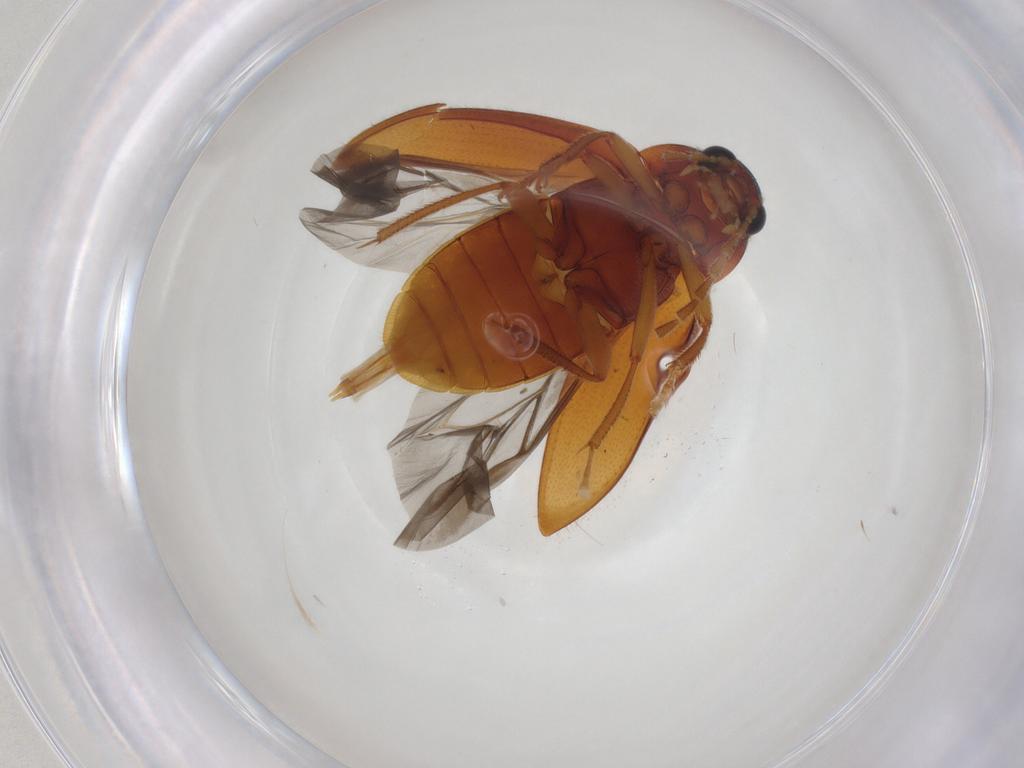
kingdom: Animalia
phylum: Arthropoda
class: Insecta
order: Coleoptera
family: Ptilodactylidae
